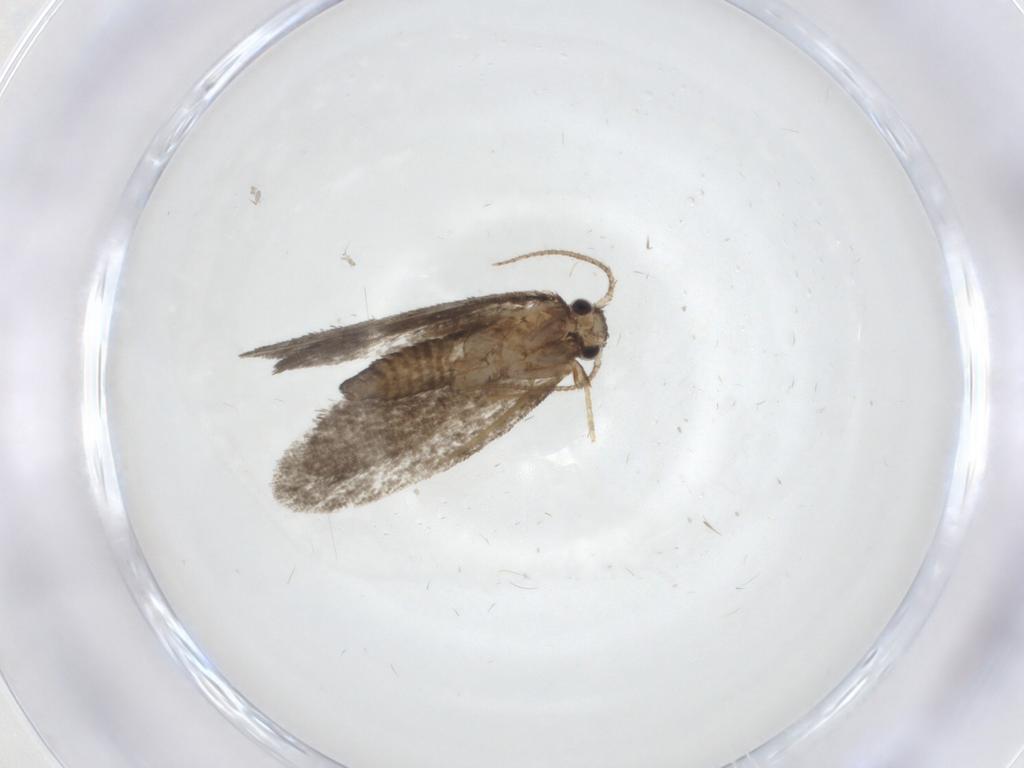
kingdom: Animalia
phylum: Arthropoda
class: Insecta
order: Lepidoptera
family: Psychidae
